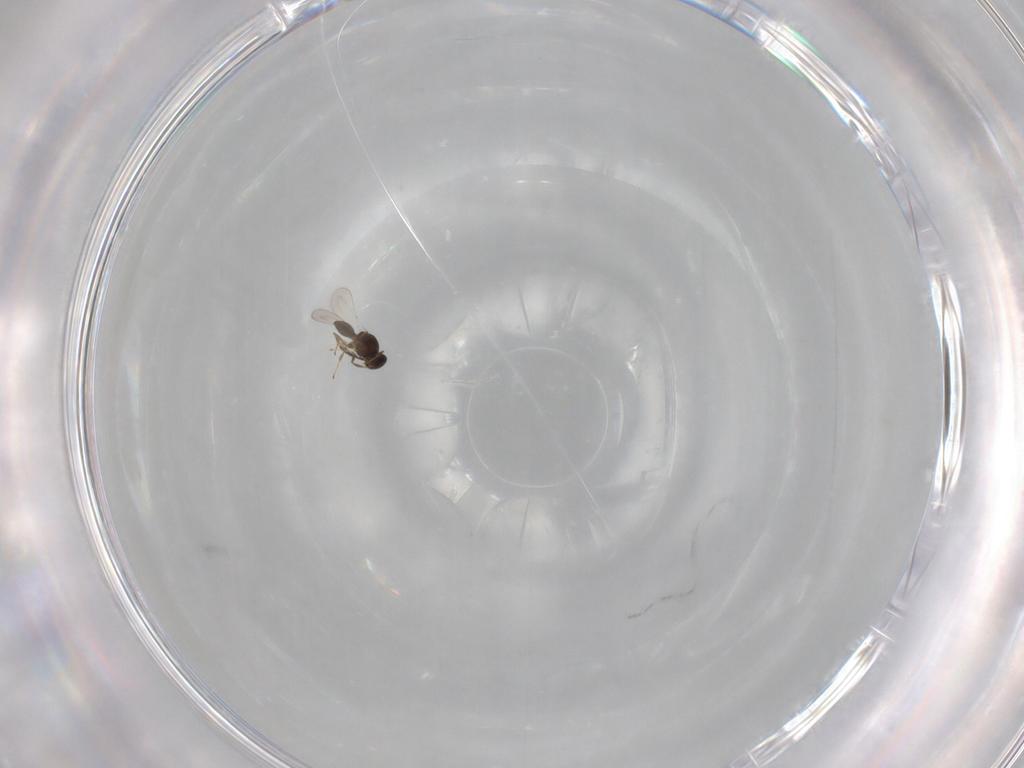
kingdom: Animalia
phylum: Arthropoda
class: Insecta
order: Hymenoptera
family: Platygastridae
